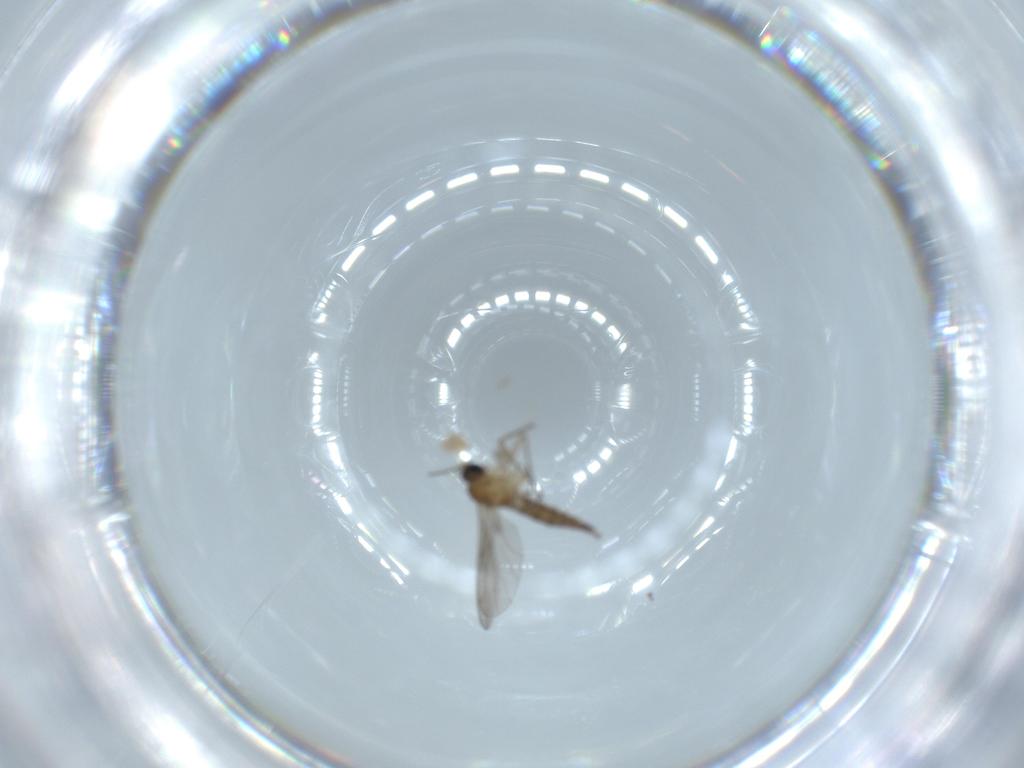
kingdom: Animalia
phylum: Arthropoda
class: Insecta
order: Diptera
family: Sciaridae
